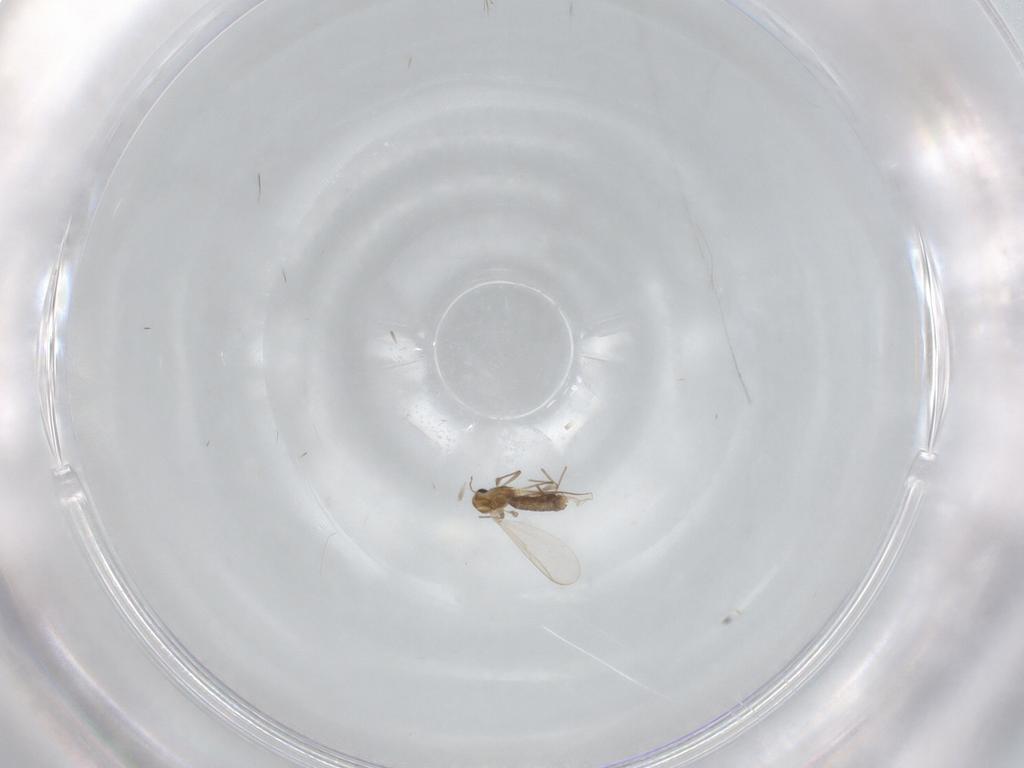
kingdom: Animalia
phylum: Arthropoda
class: Insecta
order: Diptera
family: Chironomidae
